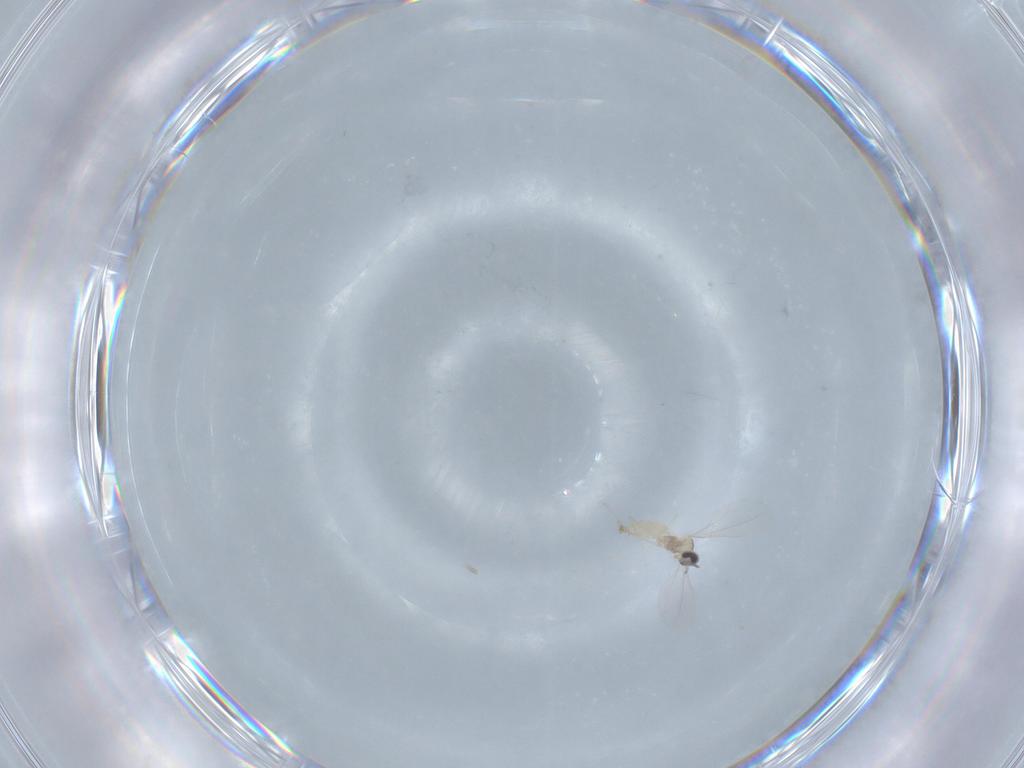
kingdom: Animalia
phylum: Arthropoda
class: Insecta
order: Diptera
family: Cecidomyiidae
